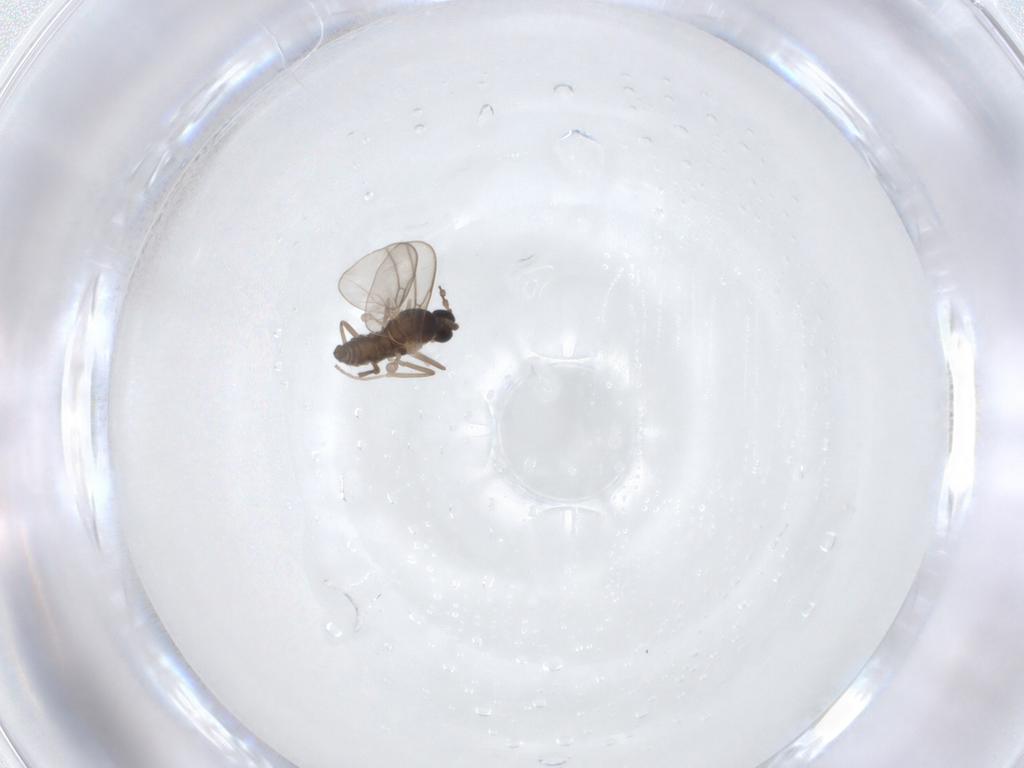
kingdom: Animalia
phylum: Arthropoda
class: Insecta
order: Diptera
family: Cecidomyiidae
